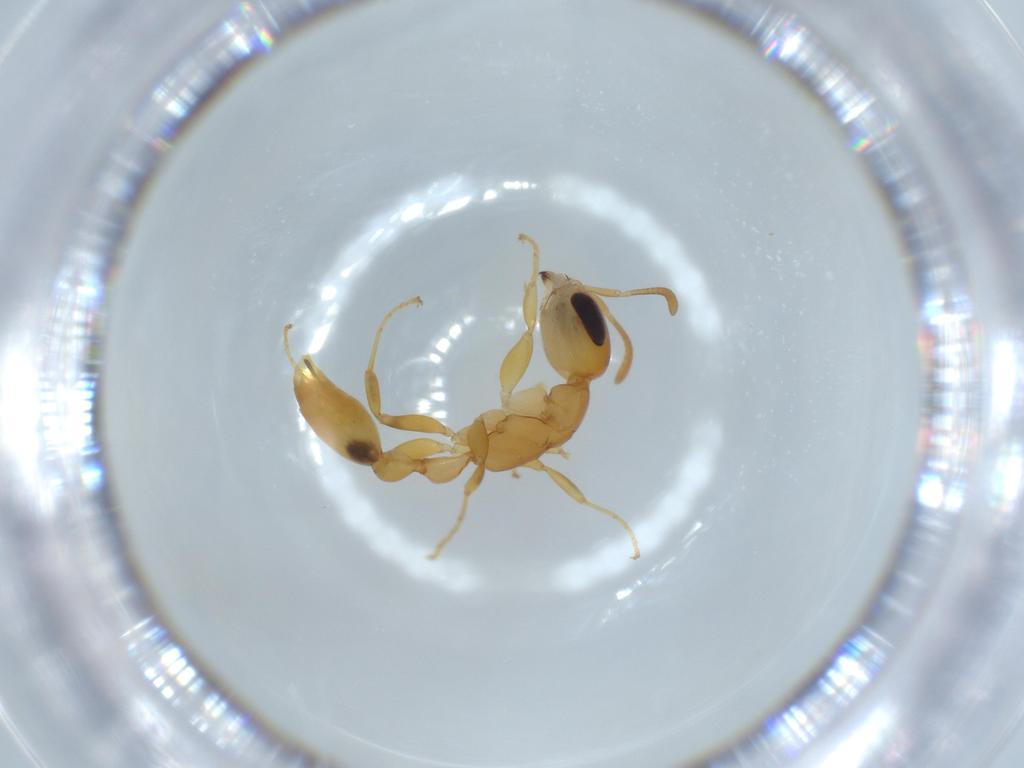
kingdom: Animalia
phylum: Arthropoda
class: Insecta
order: Hymenoptera
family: Formicidae
